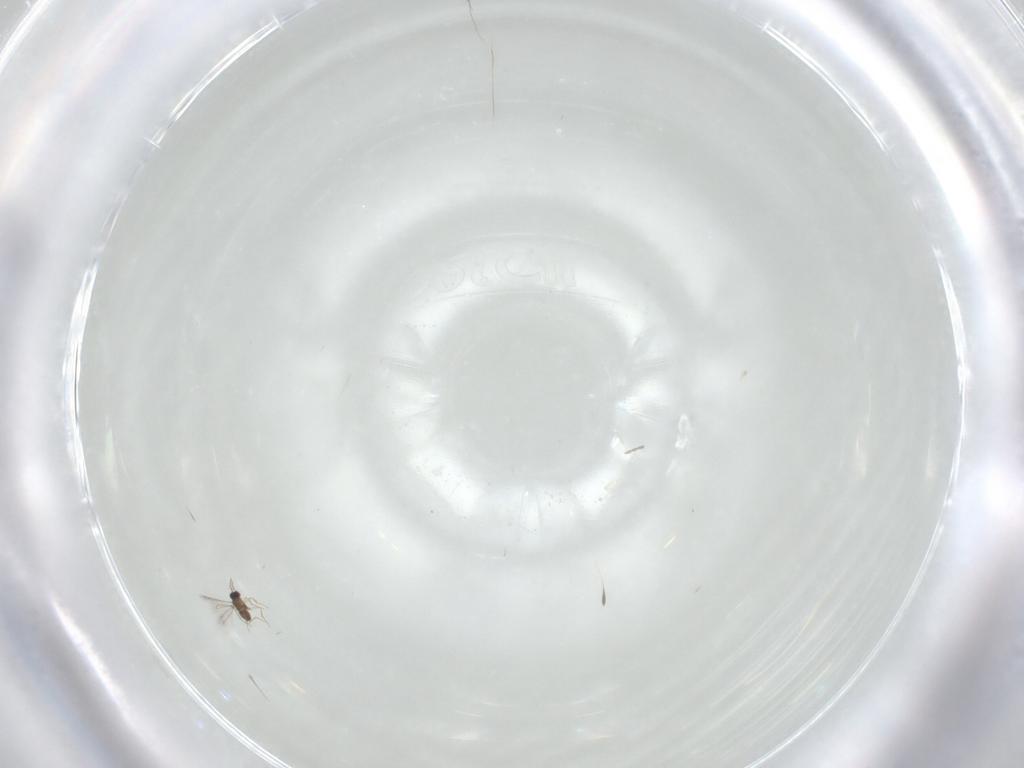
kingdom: Animalia
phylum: Arthropoda
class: Insecta
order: Hymenoptera
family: Mymaridae
